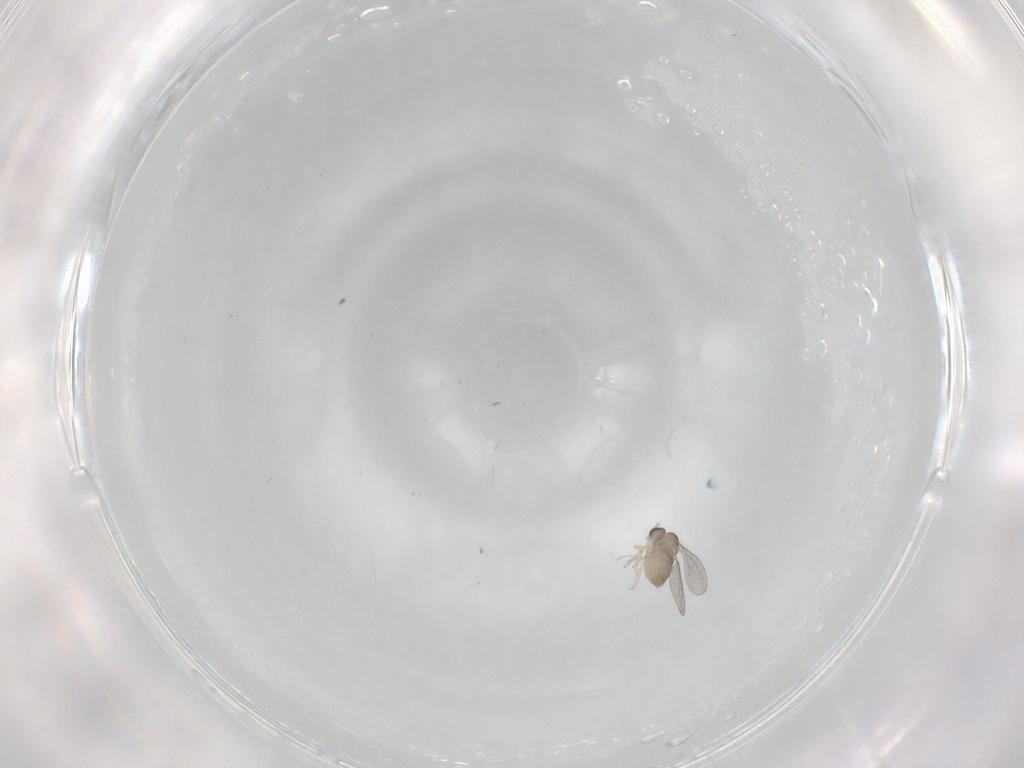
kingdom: Animalia
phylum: Arthropoda
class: Insecta
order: Diptera
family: Cecidomyiidae
